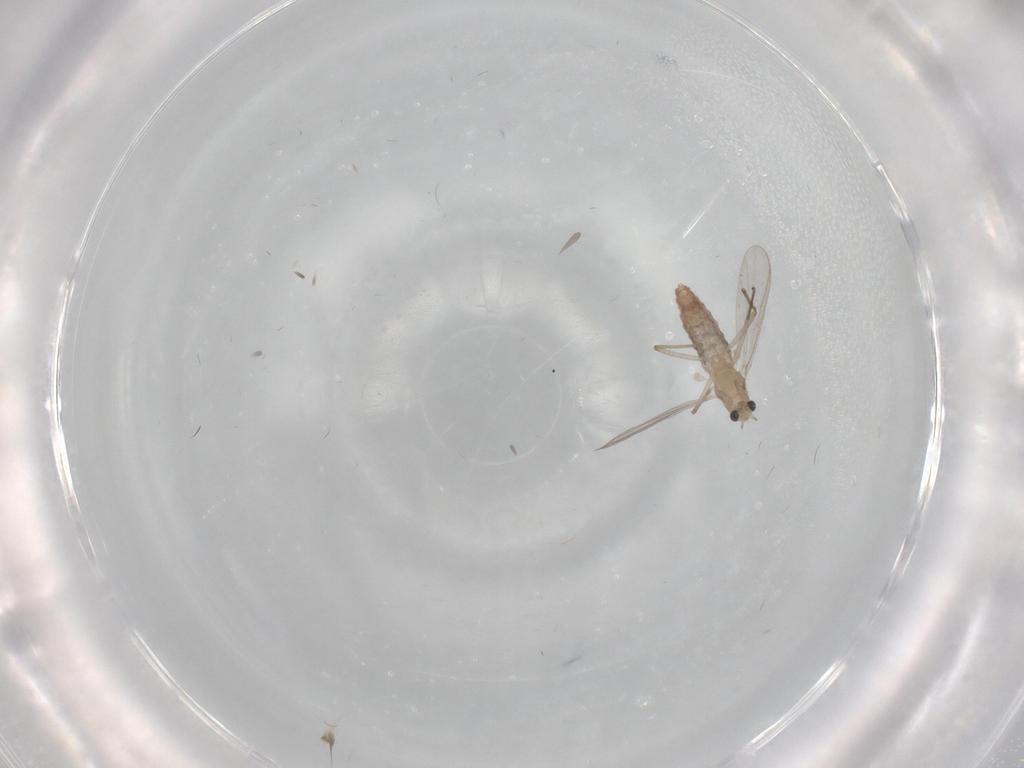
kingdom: Animalia
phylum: Arthropoda
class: Insecta
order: Diptera
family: Chironomidae
